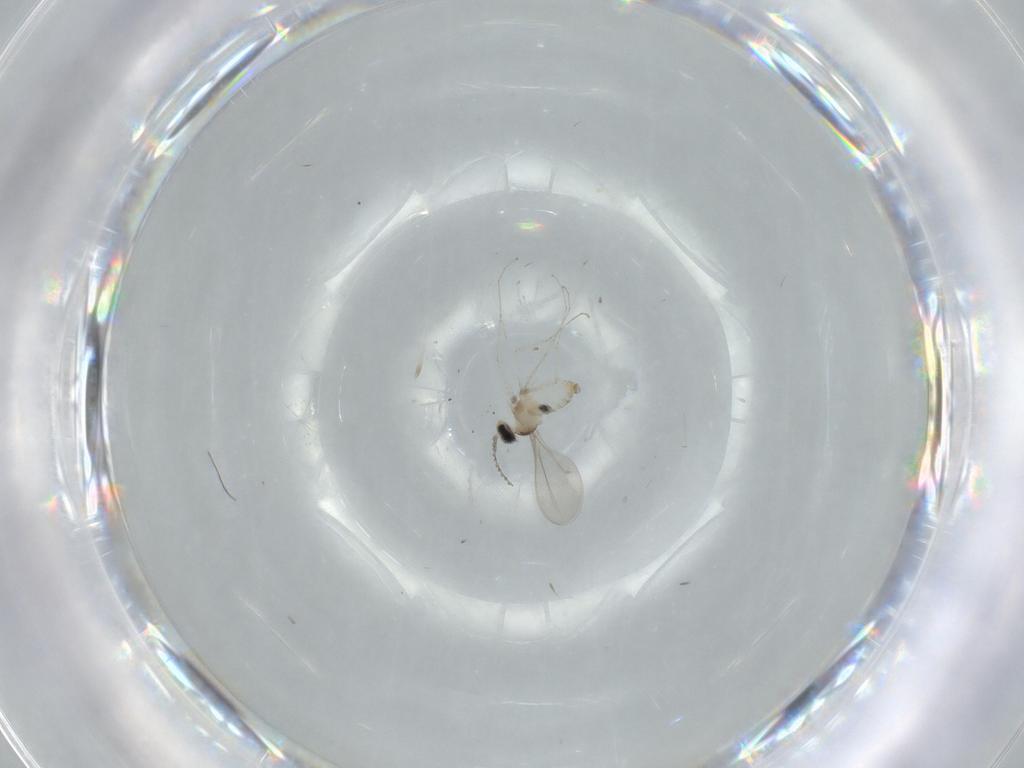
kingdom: Animalia
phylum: Arthropoda
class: Insecta
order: Diptera
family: Cecidomyiidae
